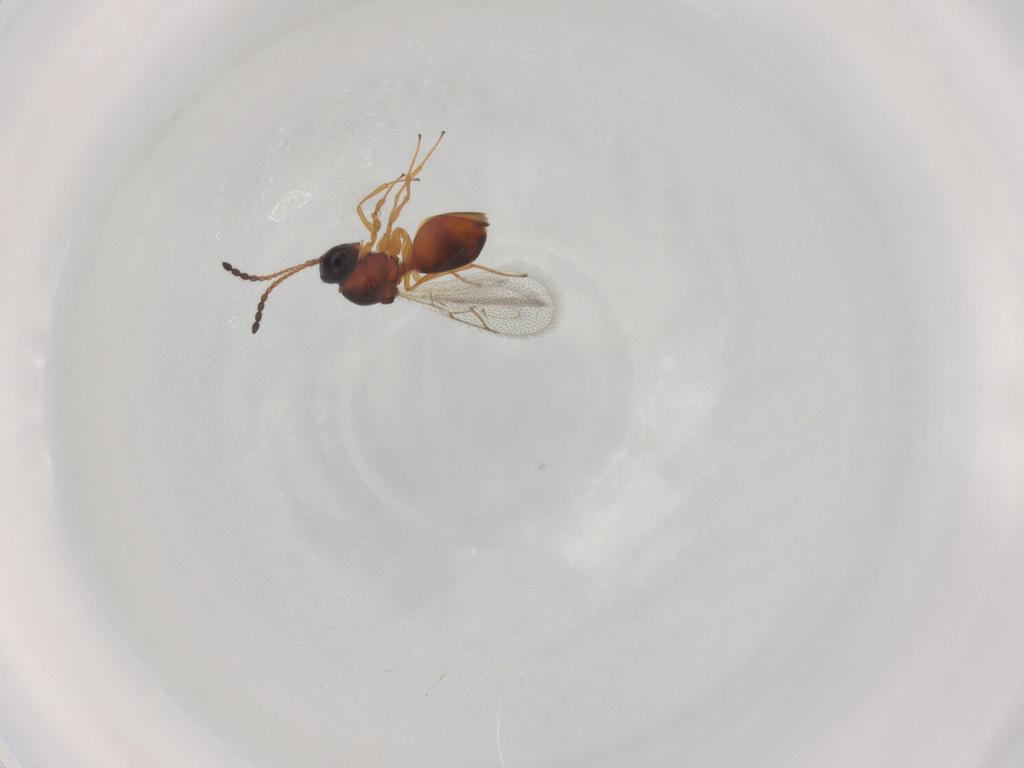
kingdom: Animalia
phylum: Arthropoda
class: Insecta
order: Hymenoptera
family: Figitidae
